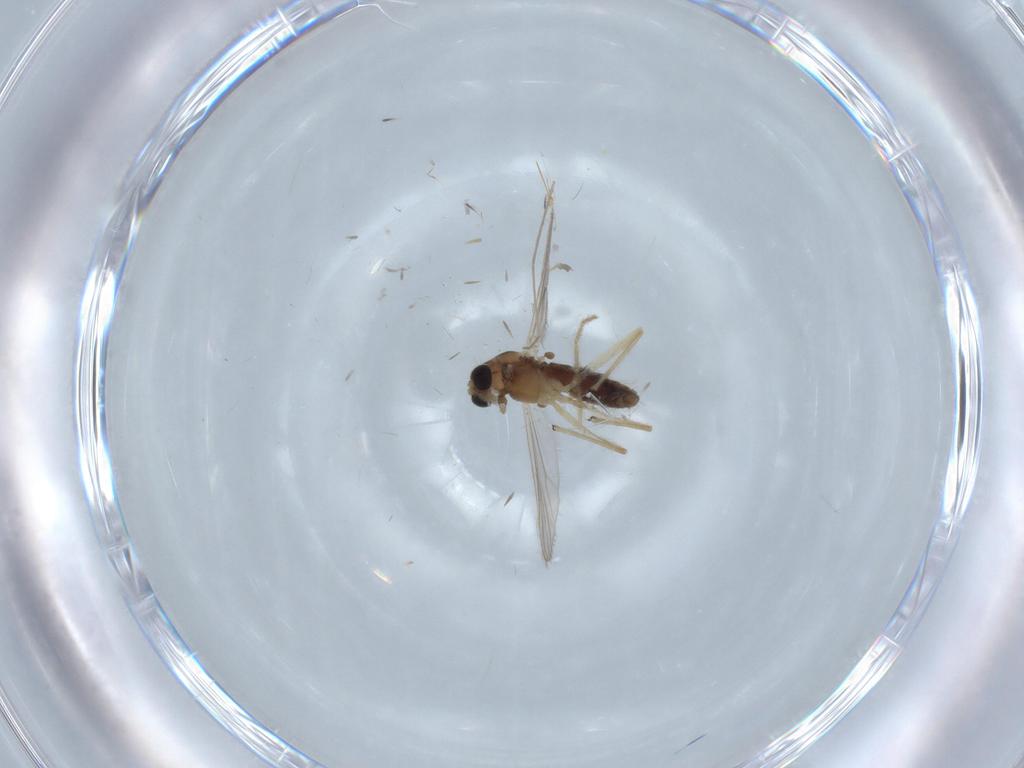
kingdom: Animalia
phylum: Arthropoda
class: Insecta
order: Diptera
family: Chironomidae
